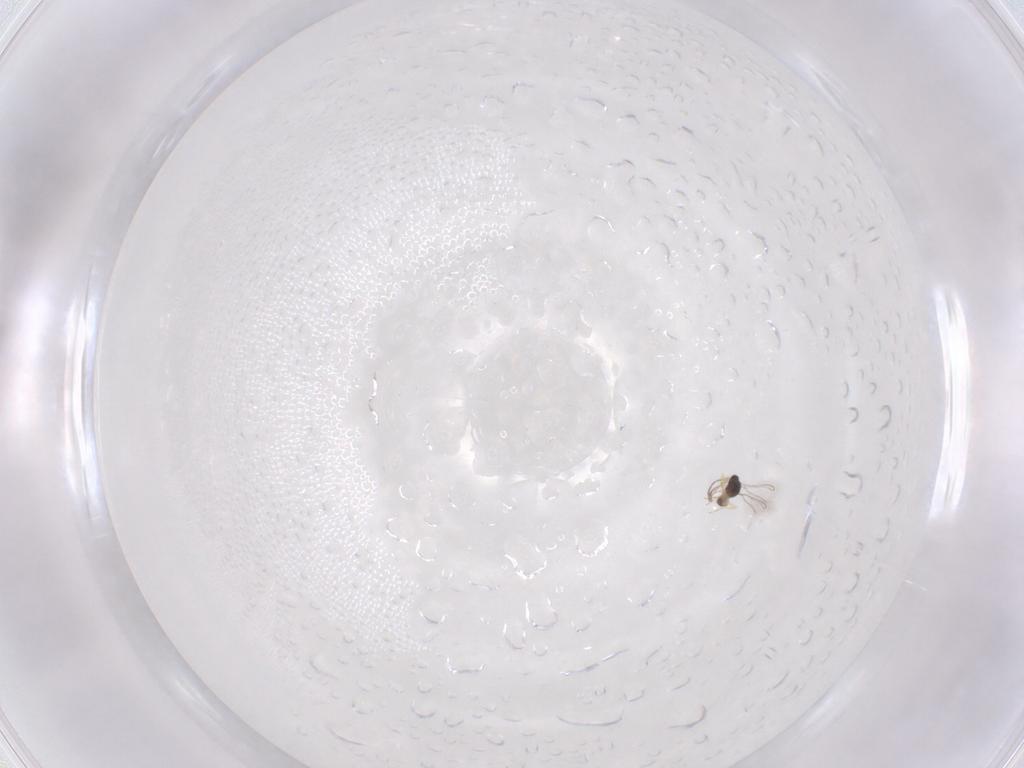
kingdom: Animalia
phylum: Arthropoda
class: Insecta
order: Hymenoptera
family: Mymaridae
